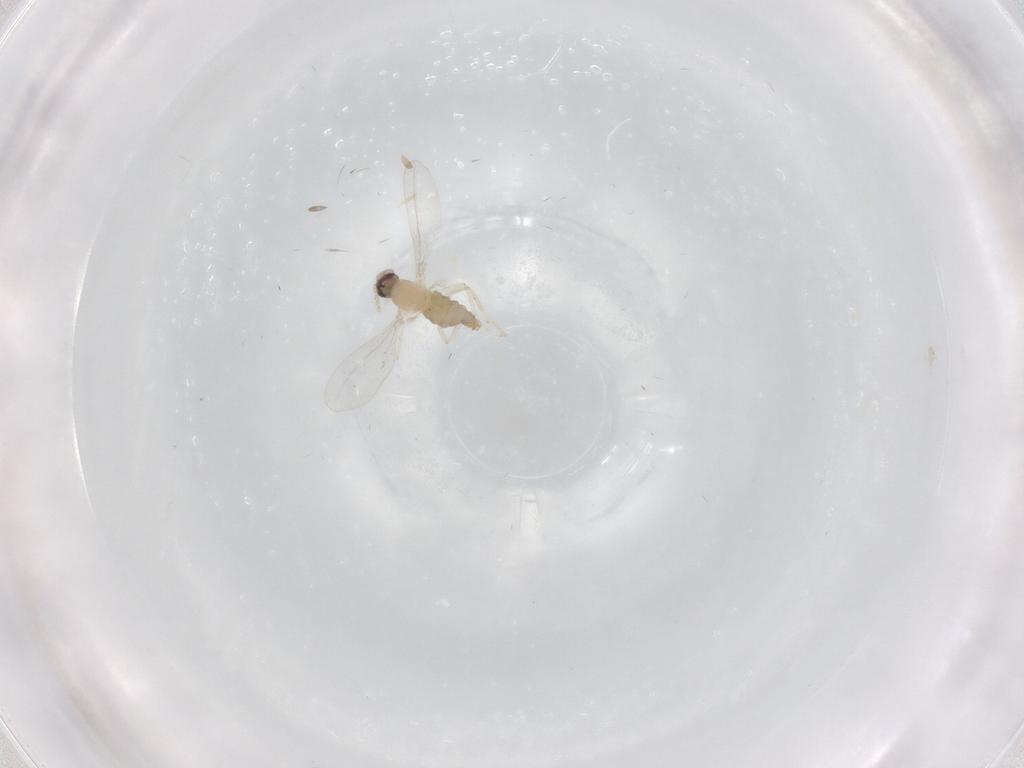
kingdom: Animalia
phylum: Arthropoda
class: Insecta
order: Diptera
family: Cecidomyiidae
